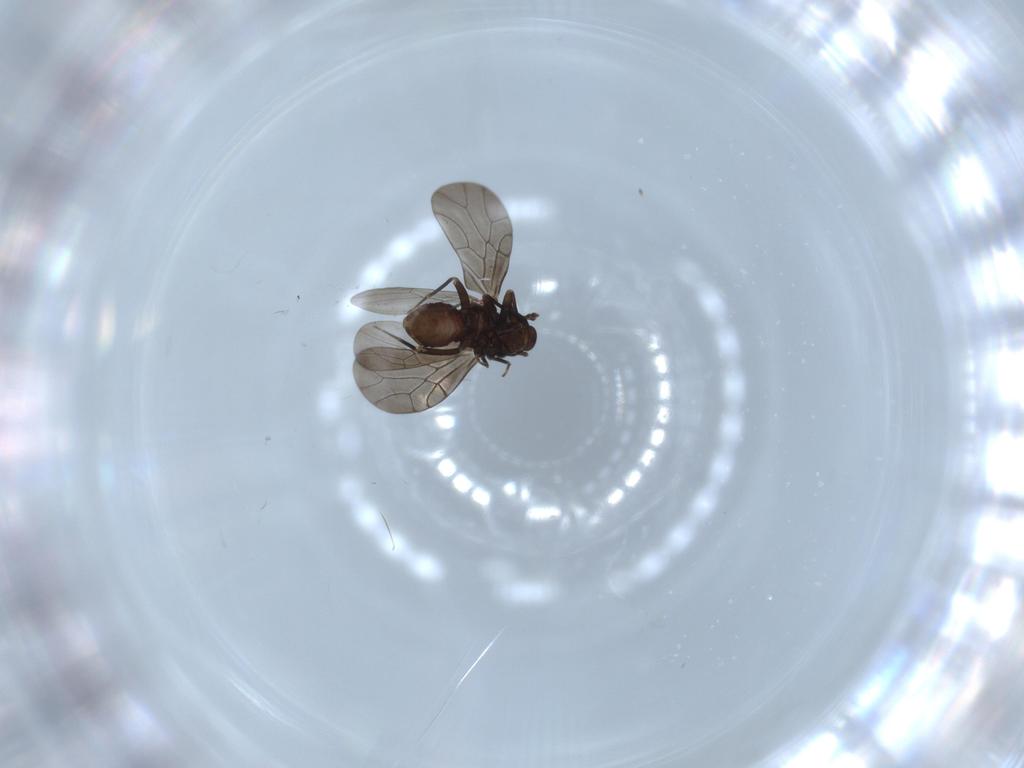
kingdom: Animalia
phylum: Arthropoda
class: Insecta
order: Psocodea
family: Lepidopsocidae
